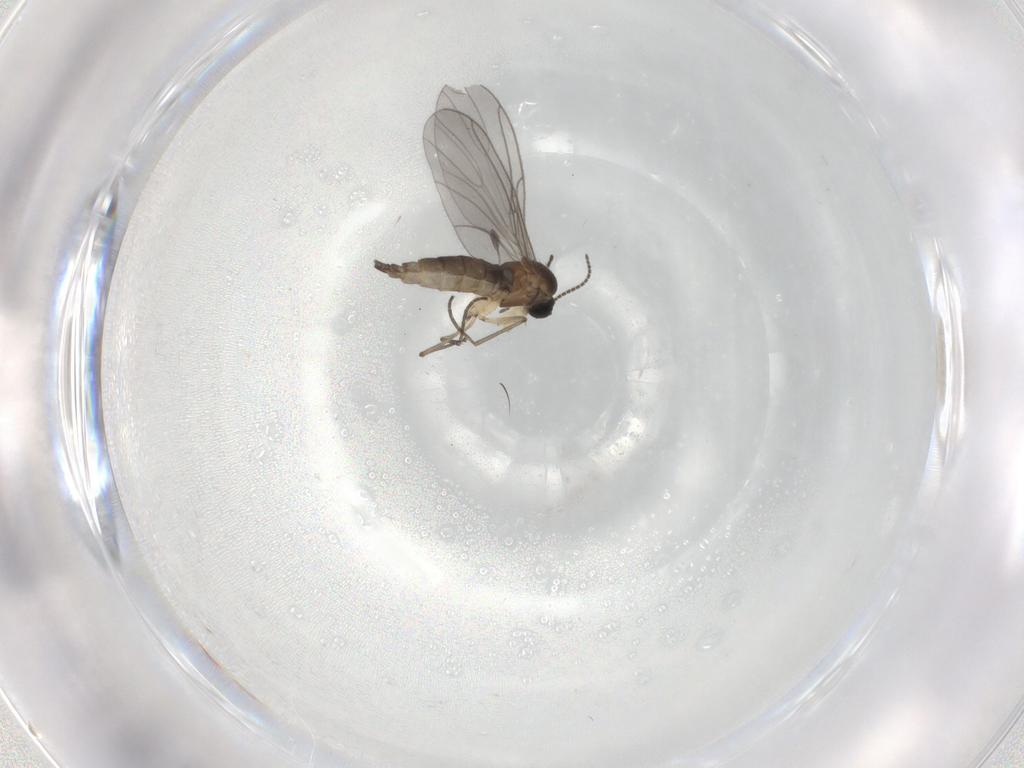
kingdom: Animalia
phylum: Arthropoda
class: Insecta
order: Diptera
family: Sciaridae
